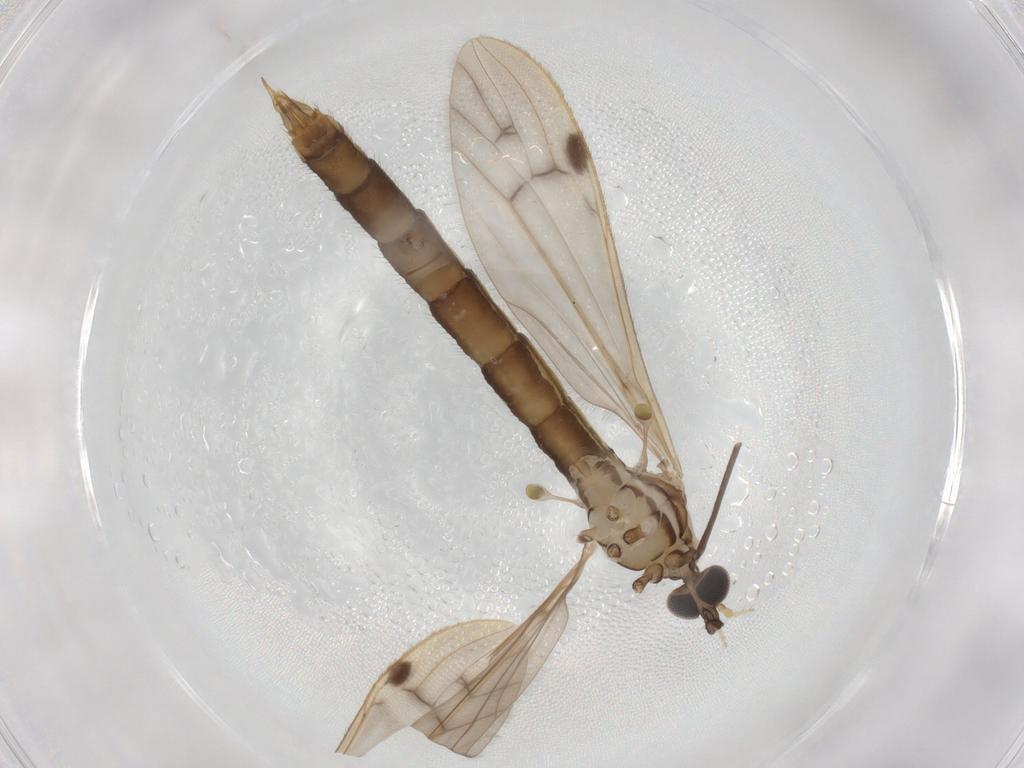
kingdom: Animalia
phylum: Arthropoda
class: Insecta
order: Diptera
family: Limoniidae
